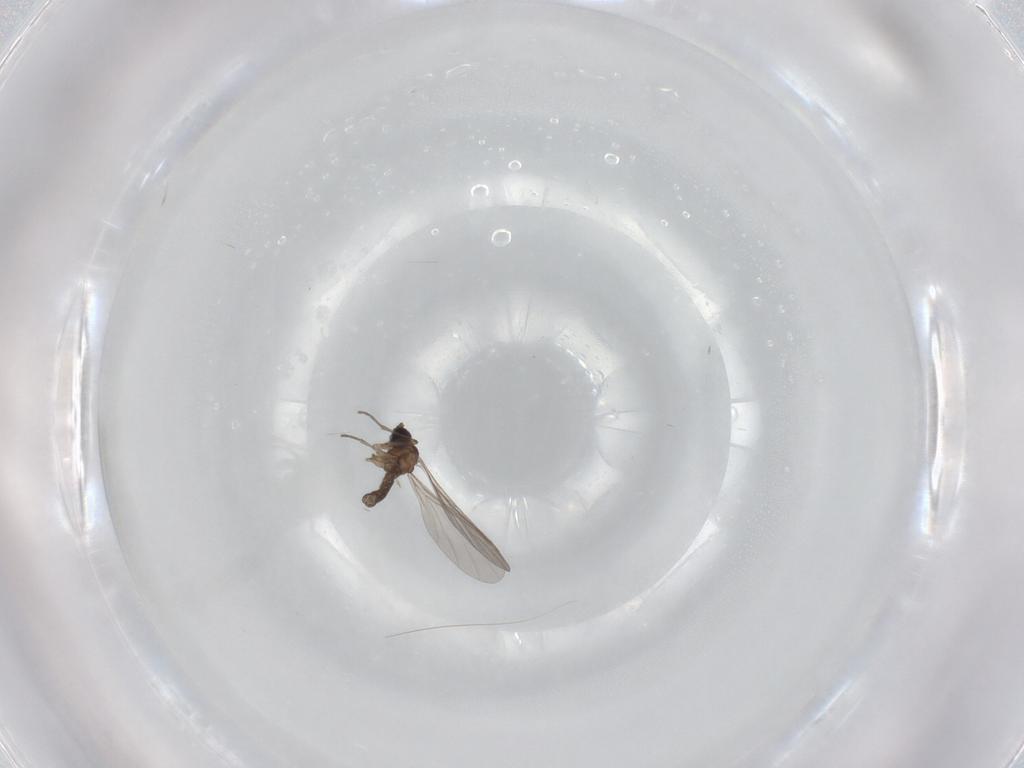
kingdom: Animalia
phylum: Arthropoda
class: Insecta
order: Diptera
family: Sciaridae
